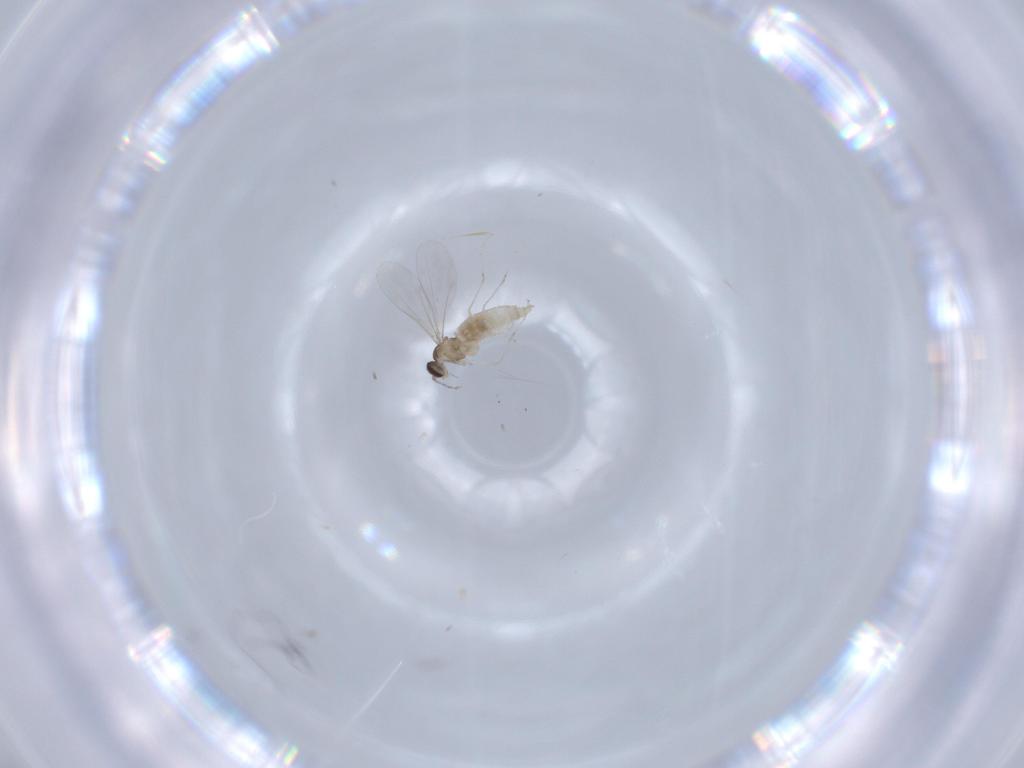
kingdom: Animalia
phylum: Arthropoda
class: Insecta
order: Diptera
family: Cecidomyiidae
